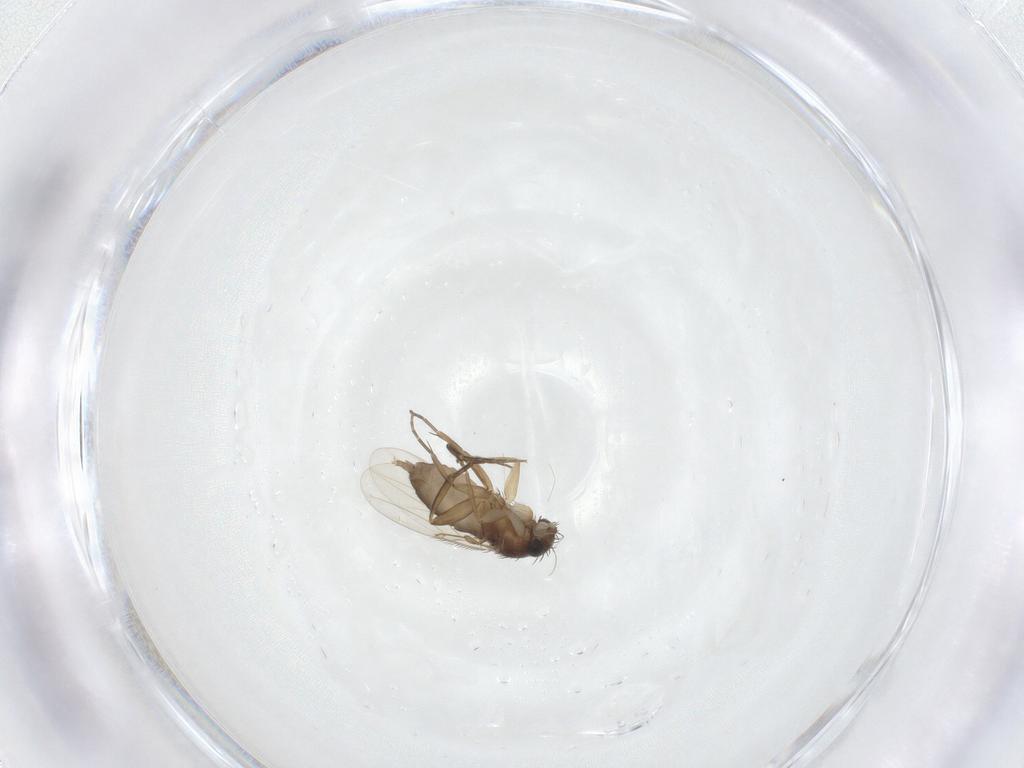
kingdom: Animalia
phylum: Arthropoda
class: Insecta
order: Diptera
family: Phoridae
